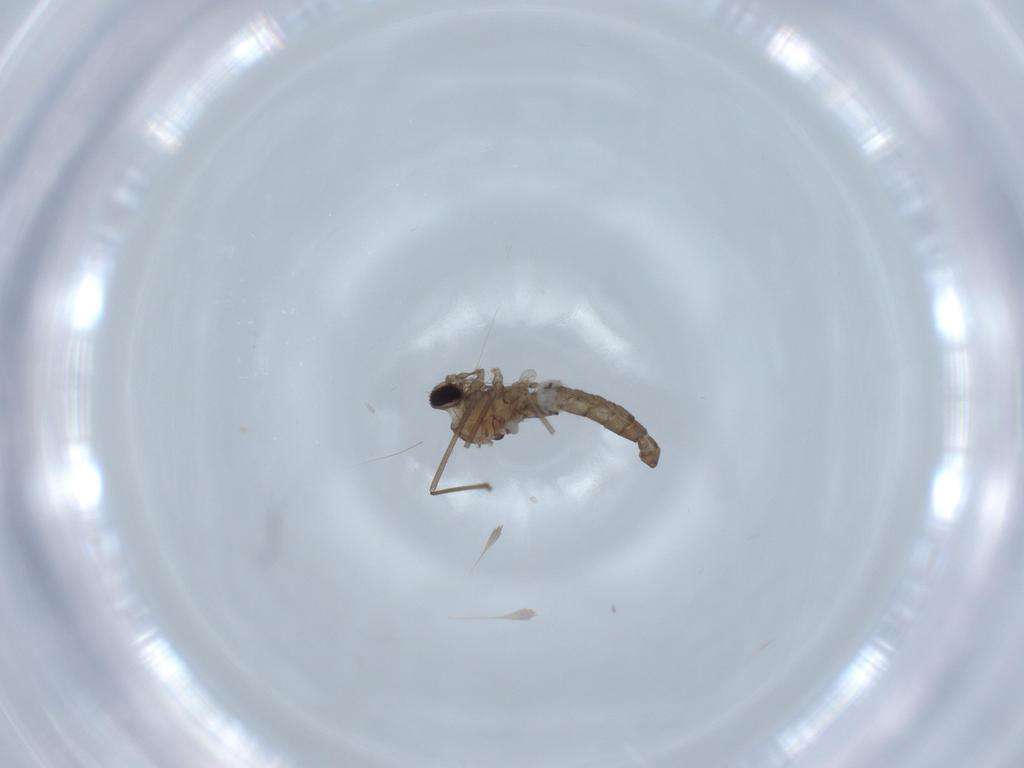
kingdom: Animalia
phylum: Arthropoda
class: Insecta
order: Diptera
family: Cecidomyiidae
